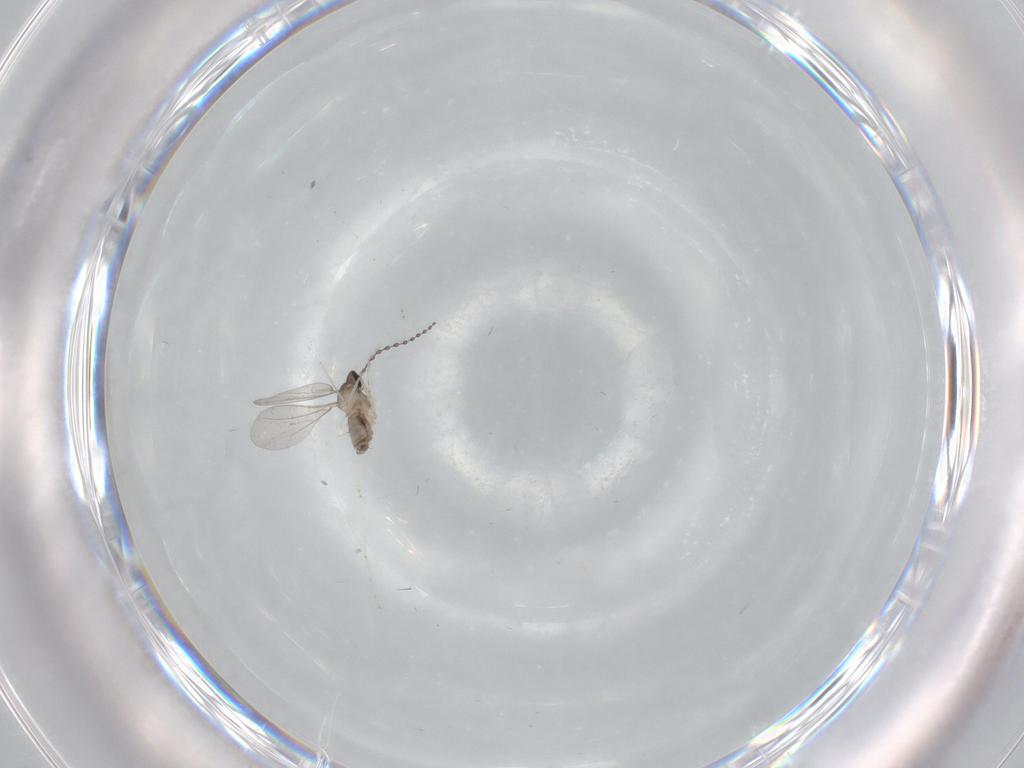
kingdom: Animalia
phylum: Arthropoda
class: Insecta
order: Diptera
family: Cecidomyiidae
